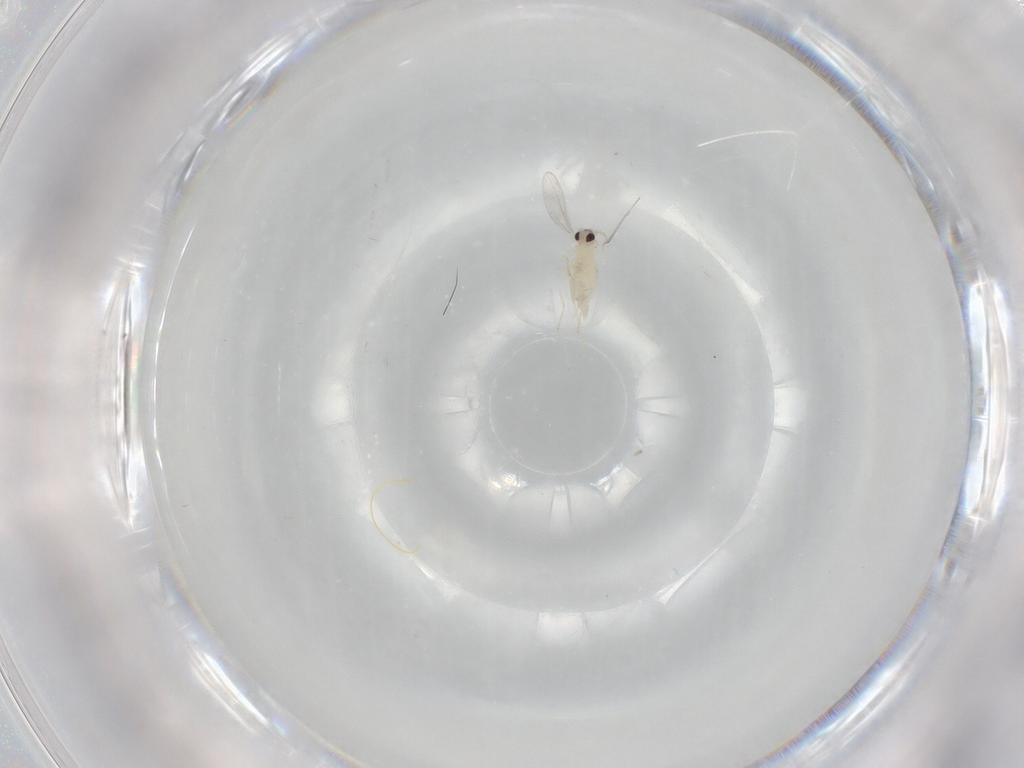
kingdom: Animalia
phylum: Arthropoda
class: Insecta
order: Diptera
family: Cecidomyiidae
